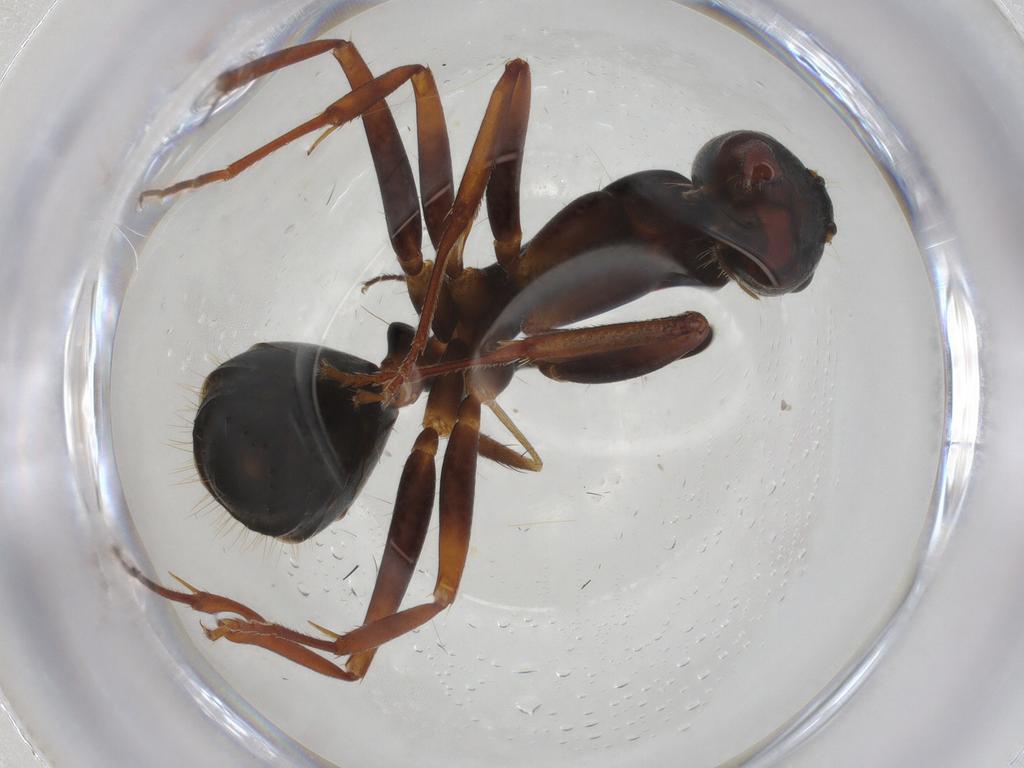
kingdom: Animalia
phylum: Arthropoda
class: Insecta
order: Hymenoptera
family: Formicidae
